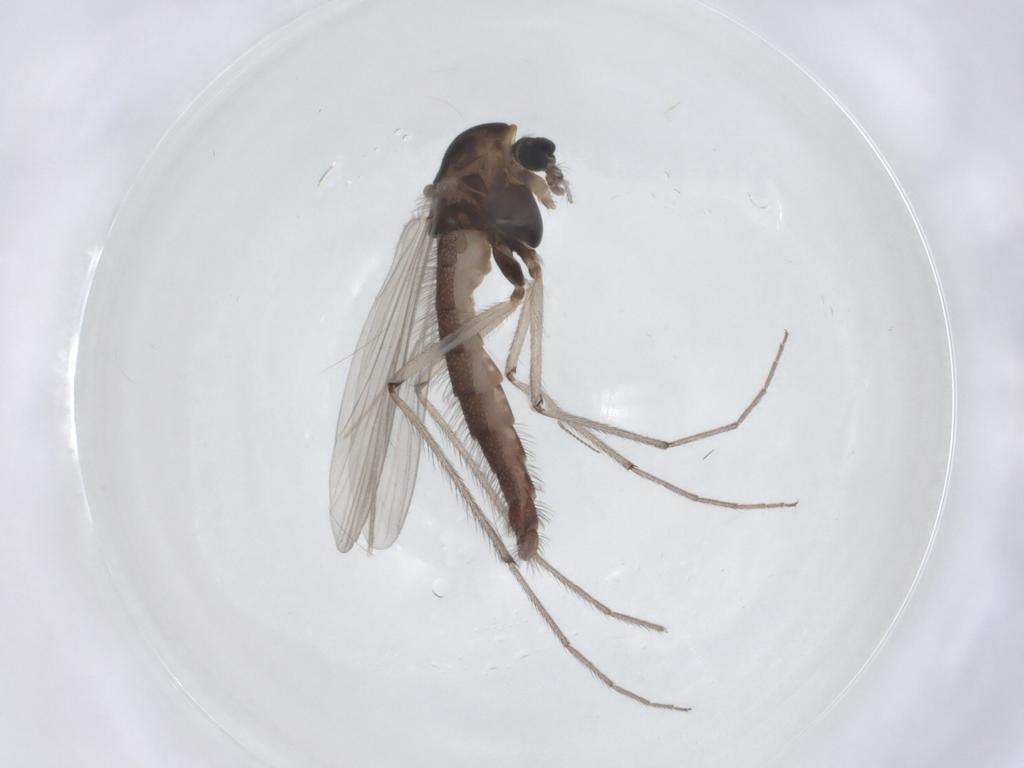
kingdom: Animalia
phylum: Arthropoda
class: Insecta
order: Diptera
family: Chironomidae
